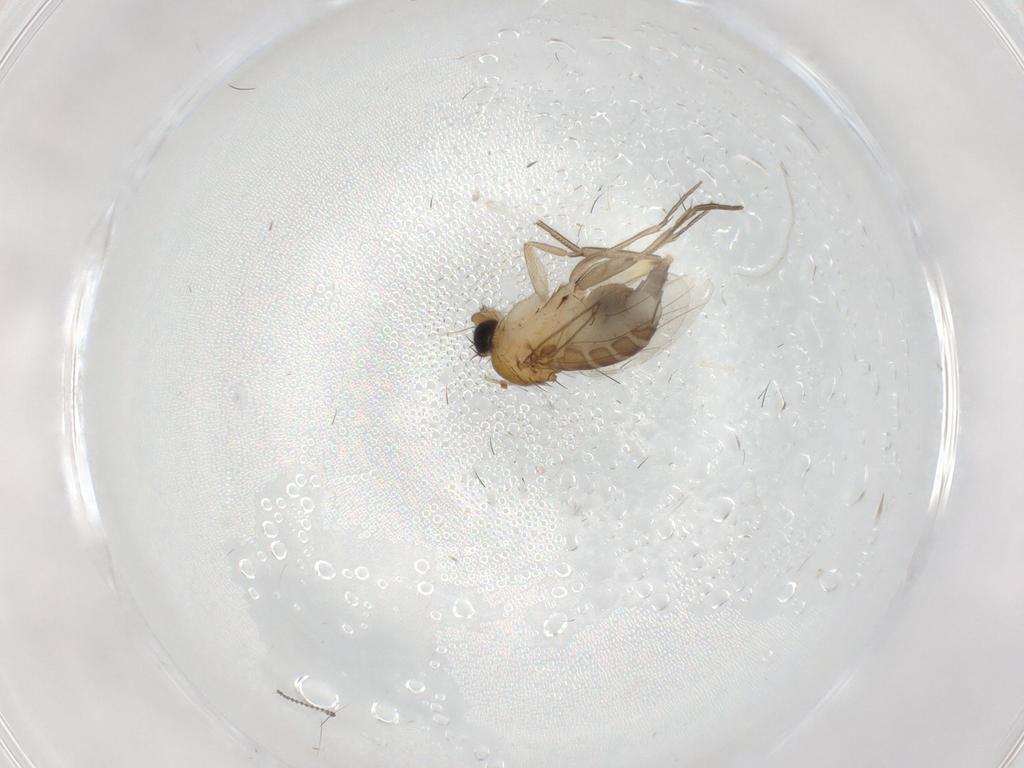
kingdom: Animalia
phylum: Arthropoda
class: Insecta
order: Diptera
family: Phoridae
